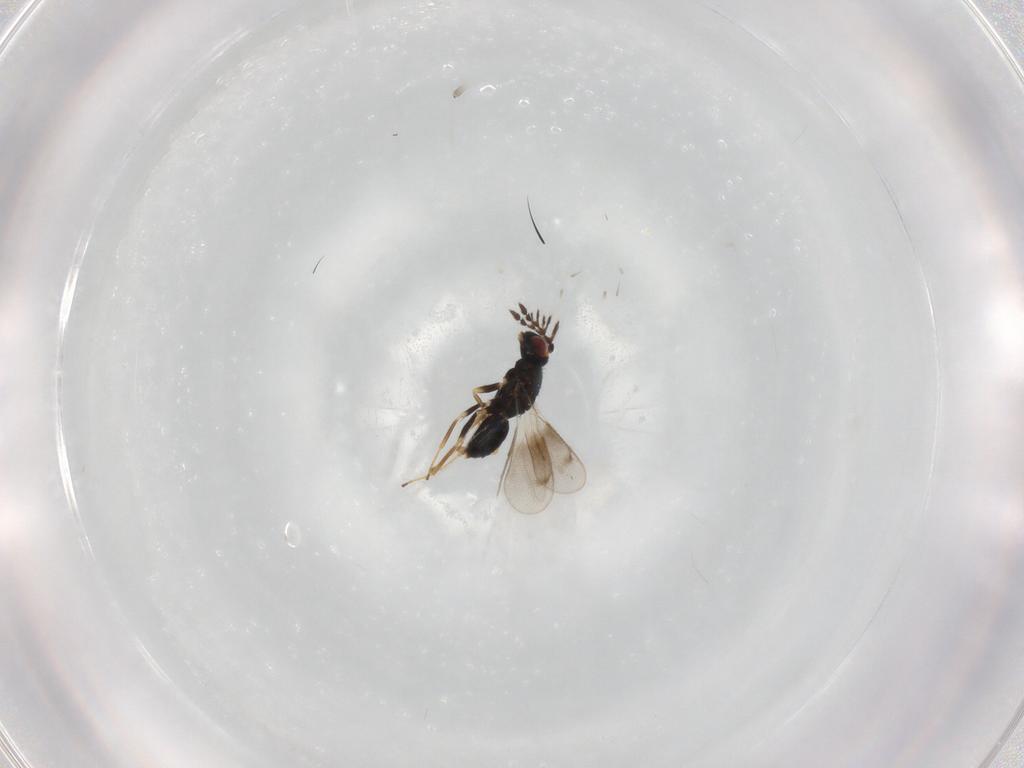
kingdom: Animalia
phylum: Arthropoda
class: Insecta
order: Hymenoptera
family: Eulophidae
